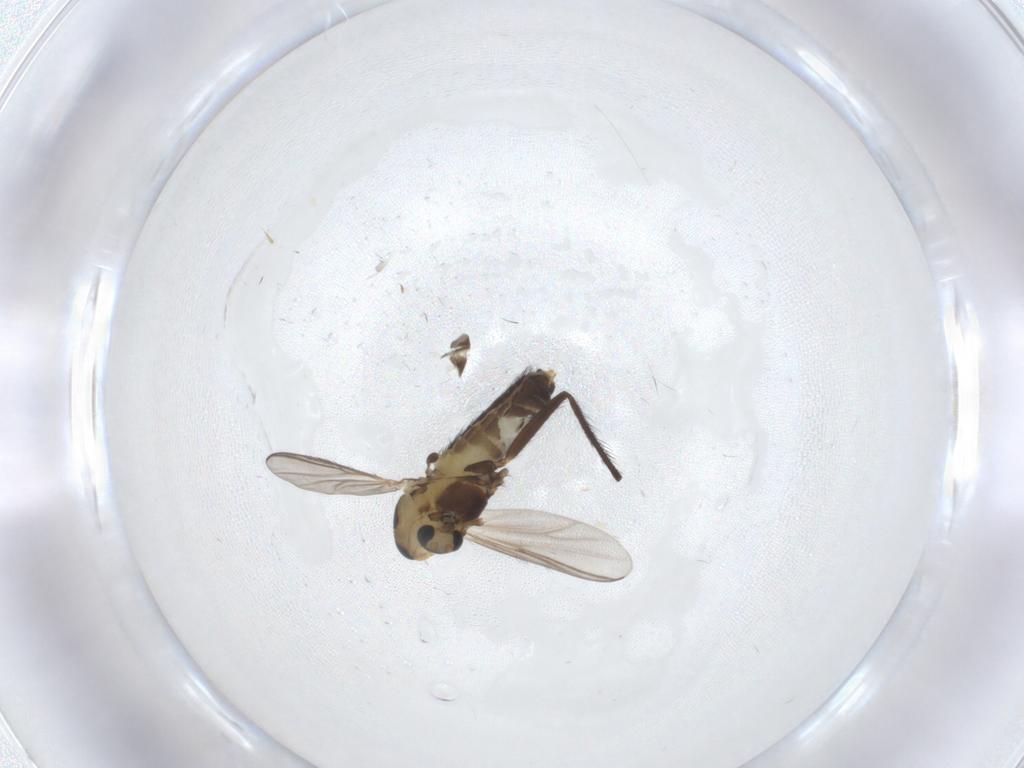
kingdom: Animalia
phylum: Arthropoda
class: Insecta
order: Diptera
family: Chironomidae
